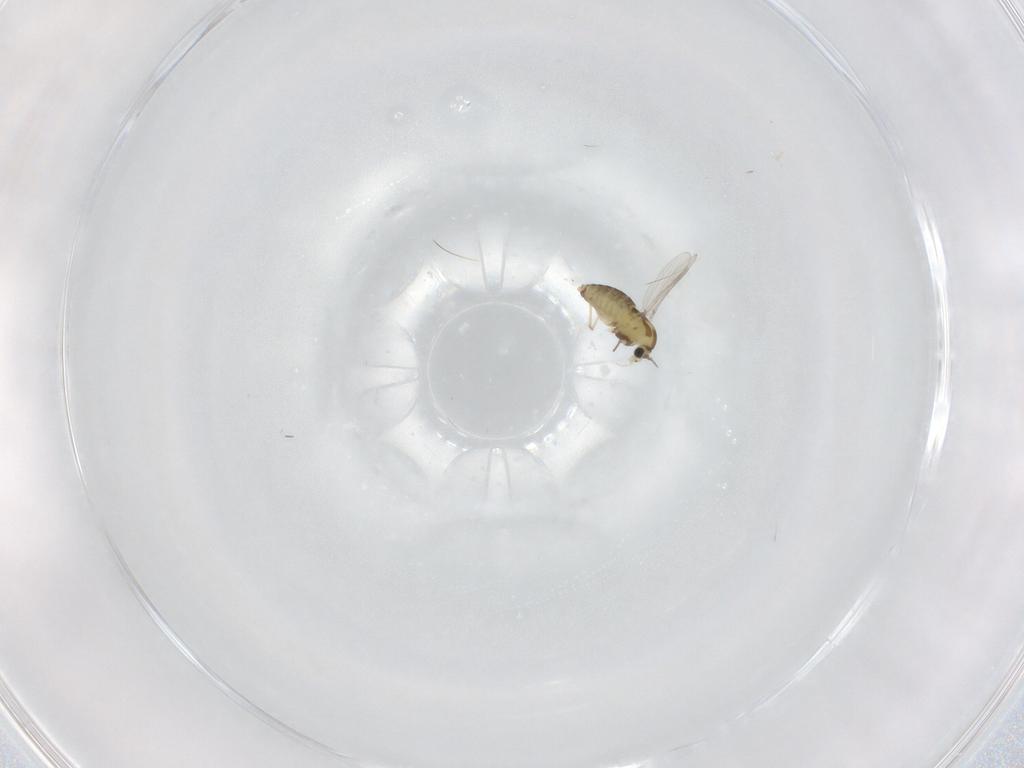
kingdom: Animalia
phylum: Arthropoda
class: Insecta
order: Diptera
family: Chironomidae
